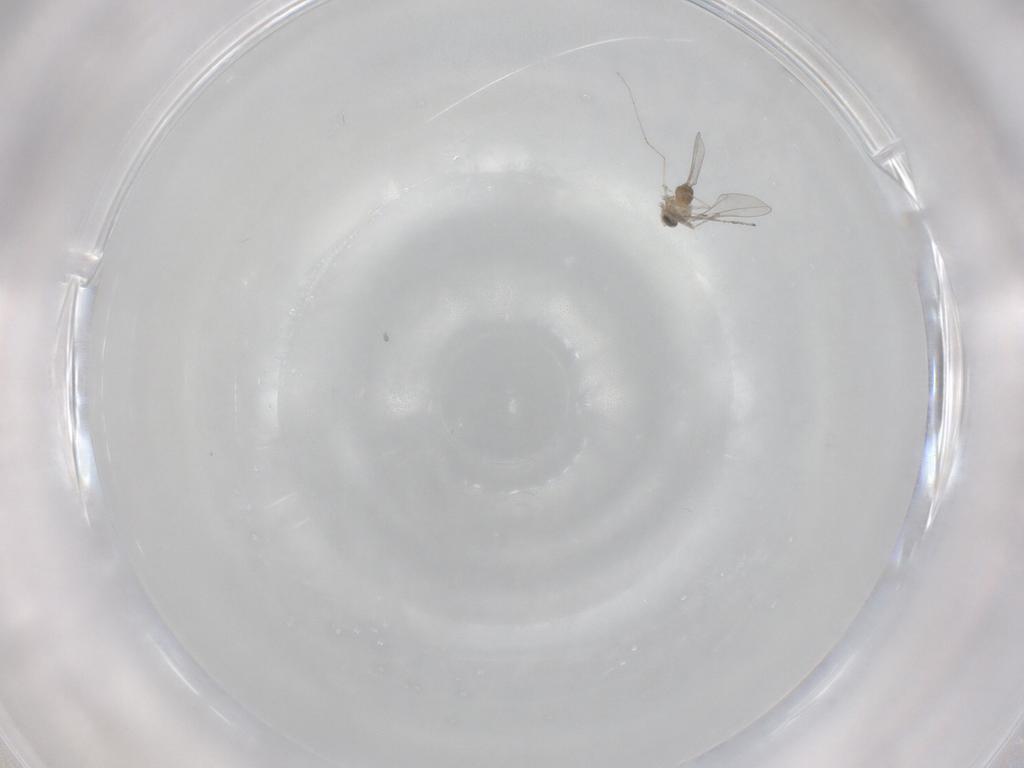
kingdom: Animalia
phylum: Arthropoda
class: Insecta
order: Diptera
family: Cecidomyiidae
